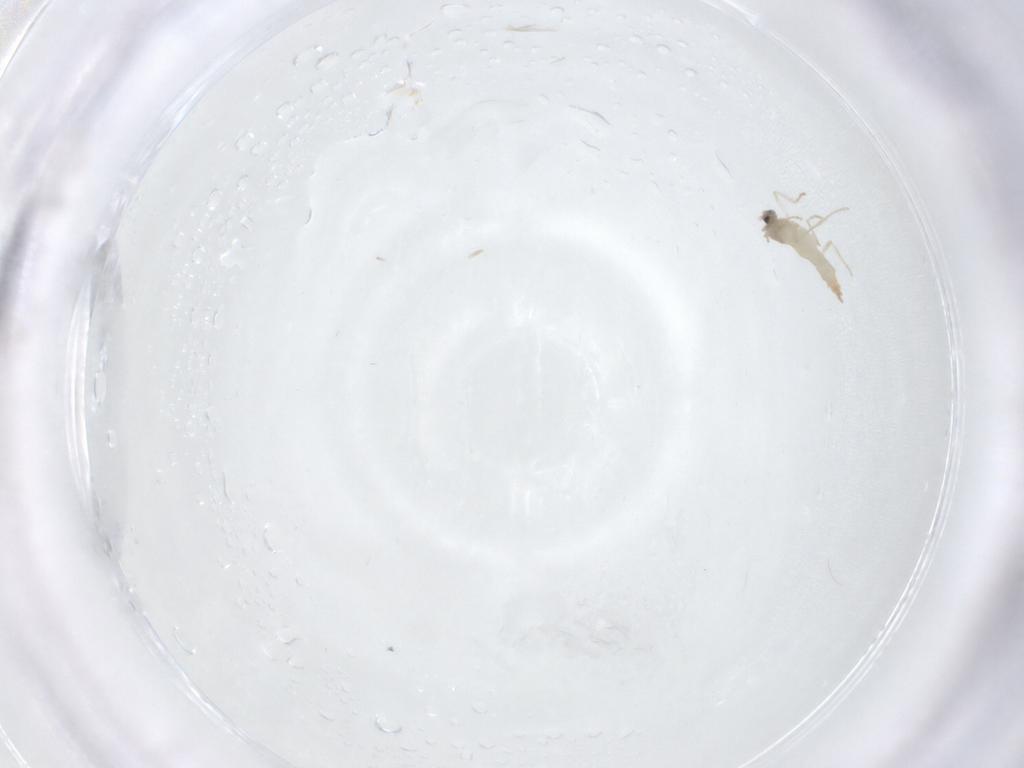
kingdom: Animalia
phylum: Arthropoda
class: Insecta
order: Diptera
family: Cecidomyiidae
